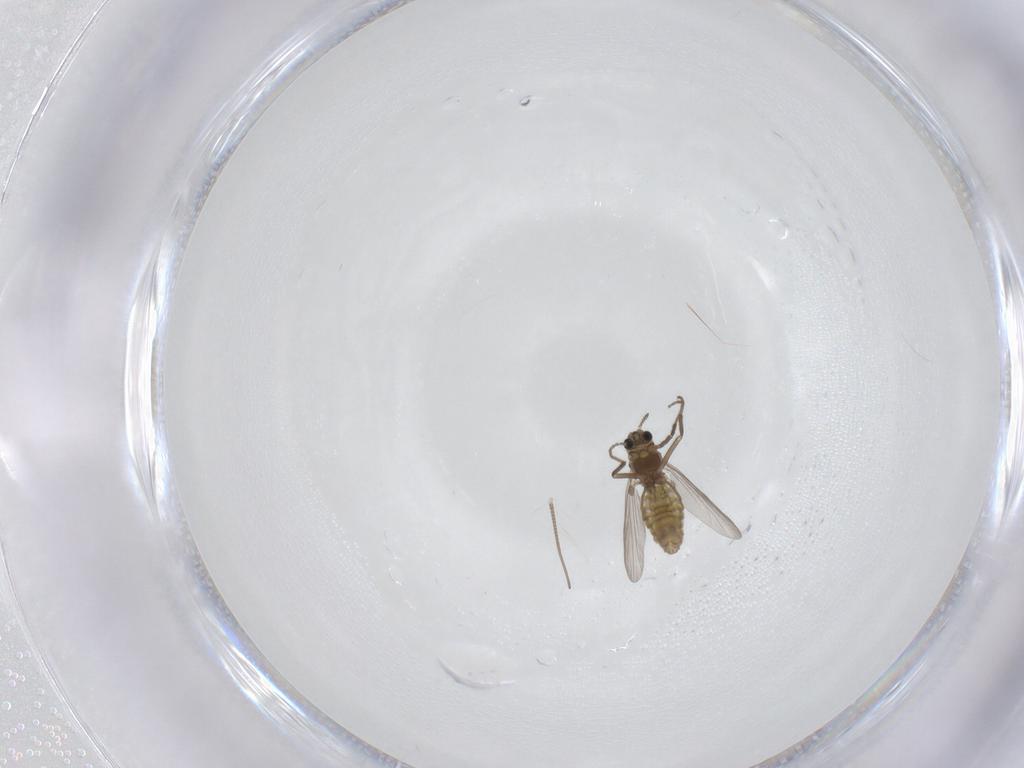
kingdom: Animalia
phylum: Arthropoda
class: Insecta
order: Diptera
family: Chironomidae
